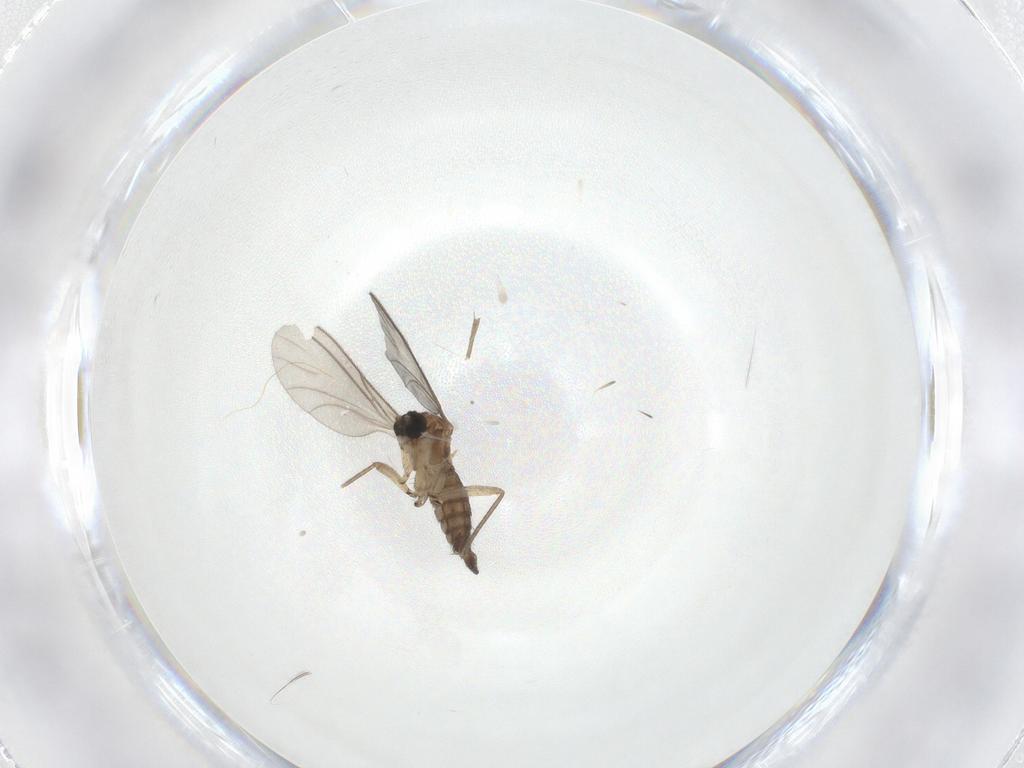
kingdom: Animalia
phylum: Arthropoda
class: Insecta
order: Diptera
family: Sciaridae
